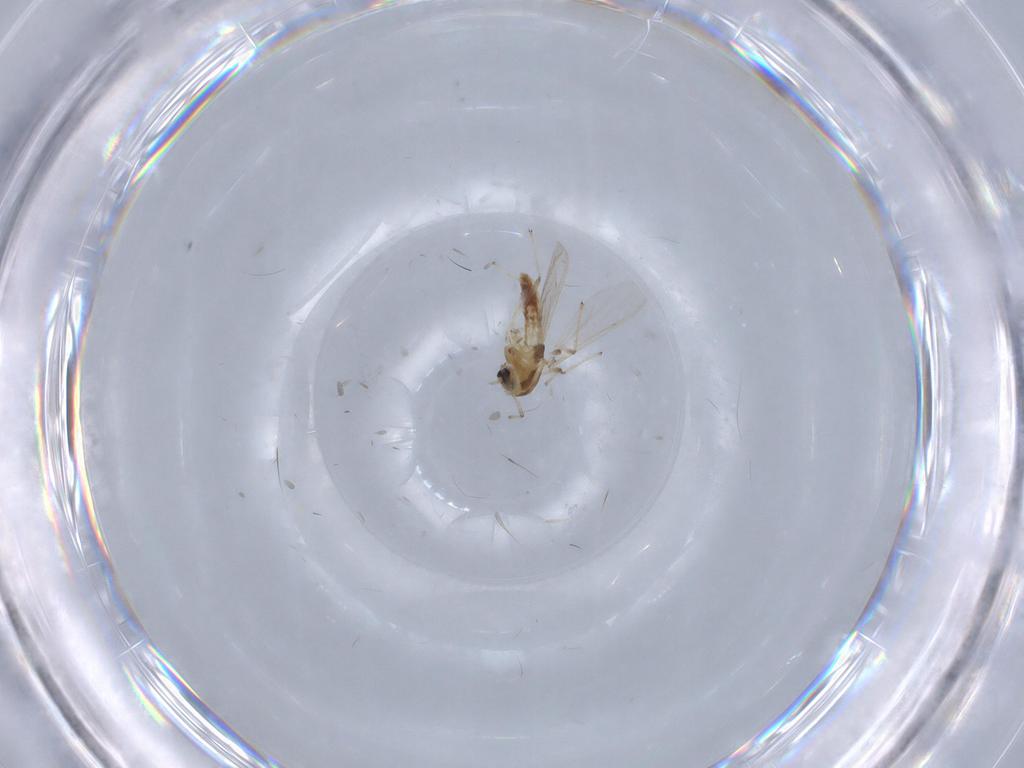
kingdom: Animalia
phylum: Arthropoda
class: Insecta
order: Diptera
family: Chironomidae
